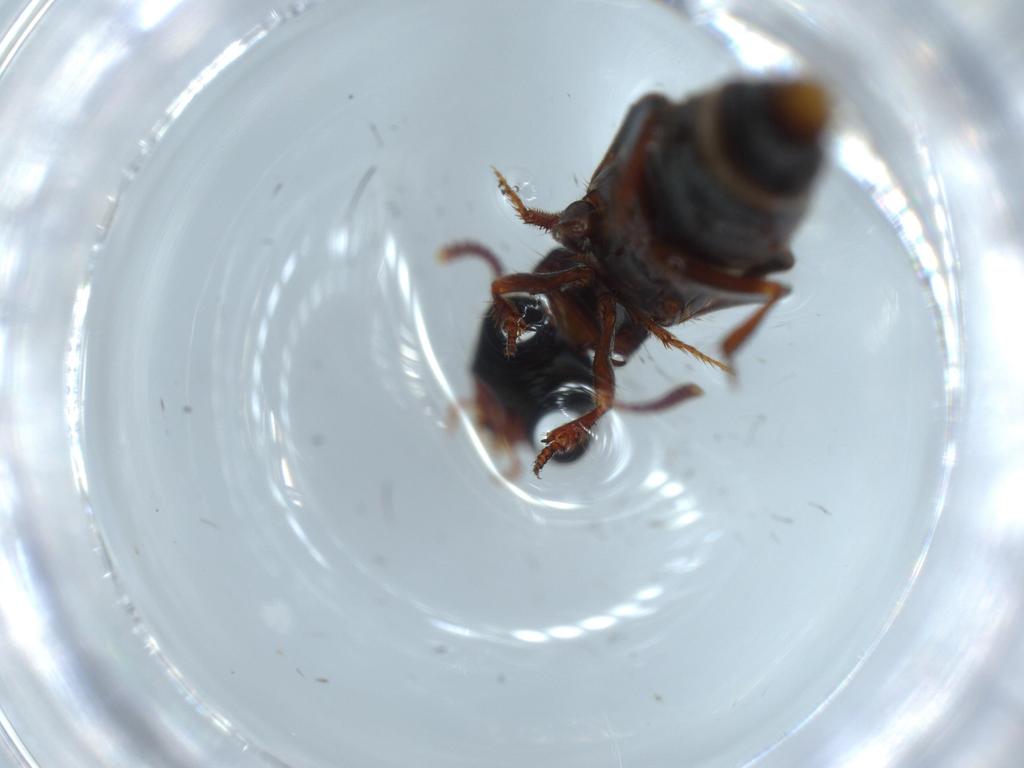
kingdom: Animalia
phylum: Arthropoda
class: Insecta
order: Coleoptera
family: Staphylinidae
